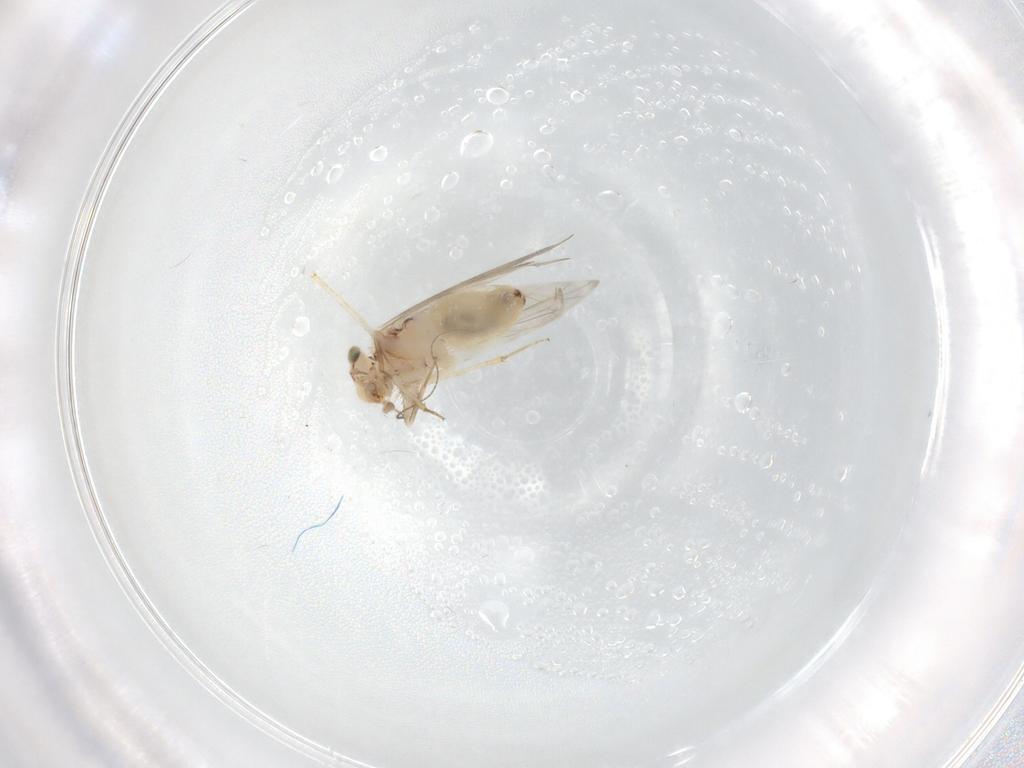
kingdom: Animalia
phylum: Arthropoda
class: Insecta
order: Psocodea
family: Lepidopsocidae
